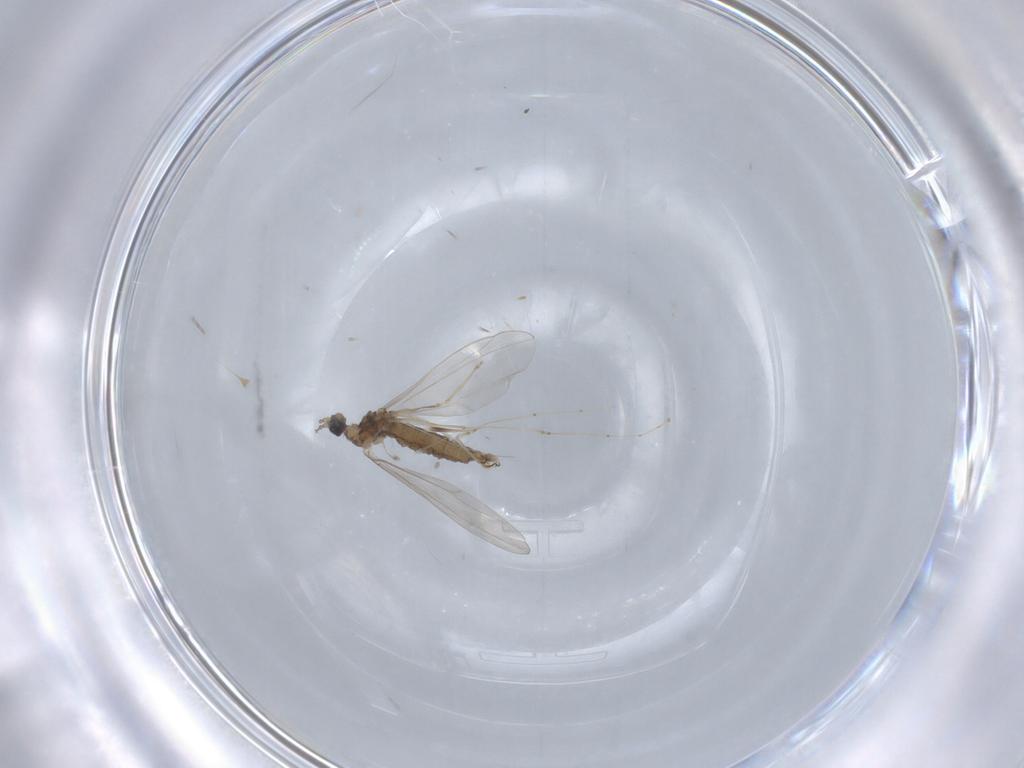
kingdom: Animalia
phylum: Arthropoda
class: Insecta
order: Diptera
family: Cecidomyiidae
